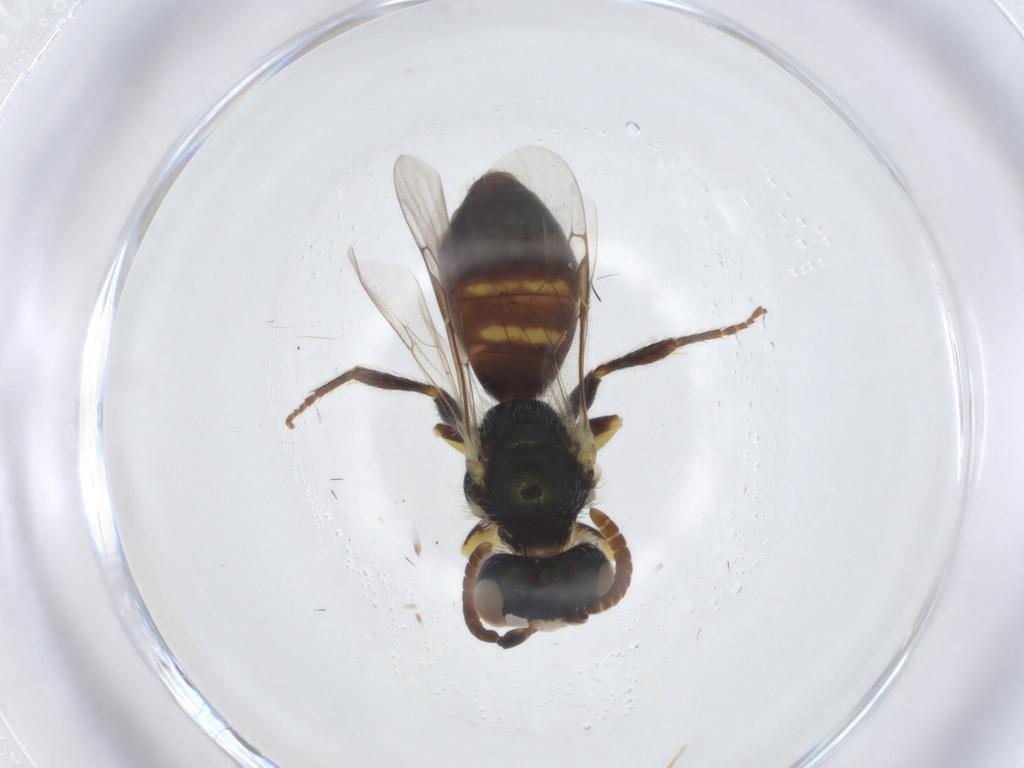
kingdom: Animalia
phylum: Arthropoda
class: Insecta
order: Hymenoptera
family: Andrenidae
